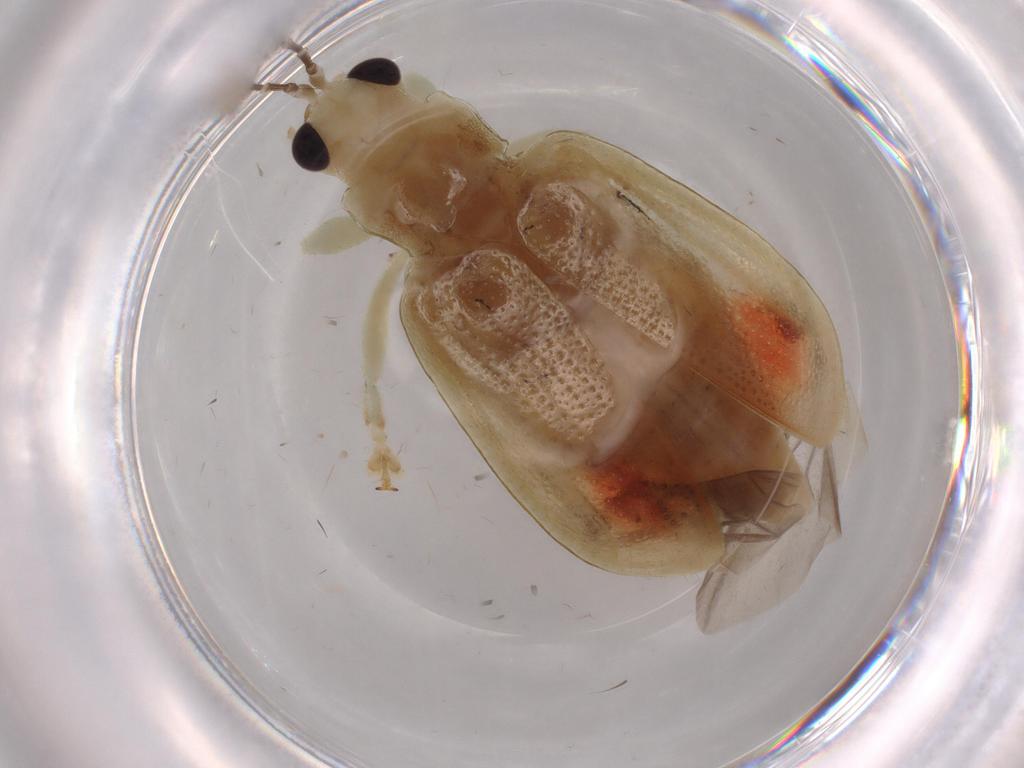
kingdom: Animalia
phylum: Arthropoda
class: Insecta
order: Coleoptera
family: Chrysomelidae
